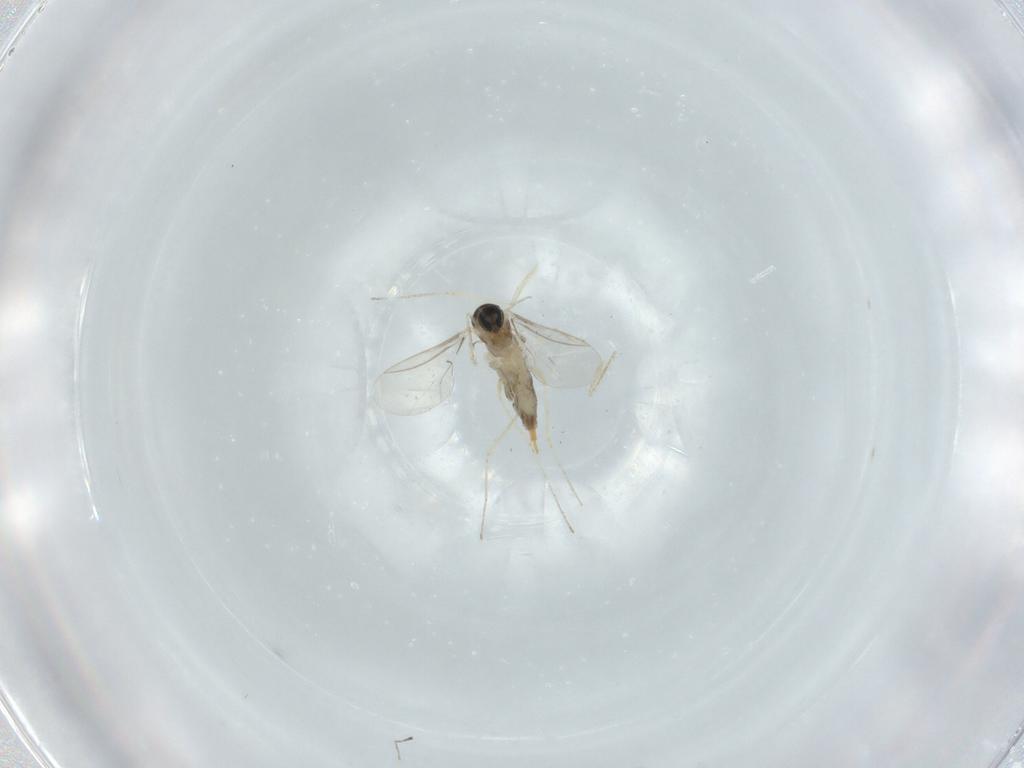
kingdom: Animalia
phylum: Arthropoda
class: Insecta
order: Diptera
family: Cecidomyiidae
